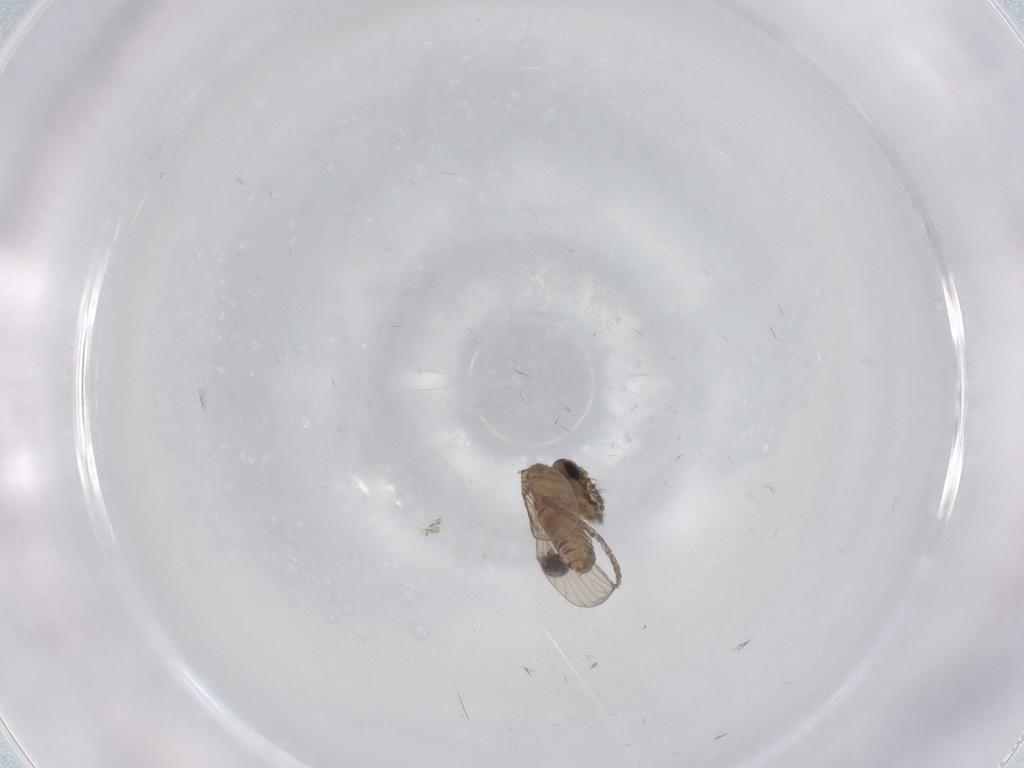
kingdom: Animalia
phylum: Arthropoda
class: Insecta
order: Diptera
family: Cecidomyiidae
